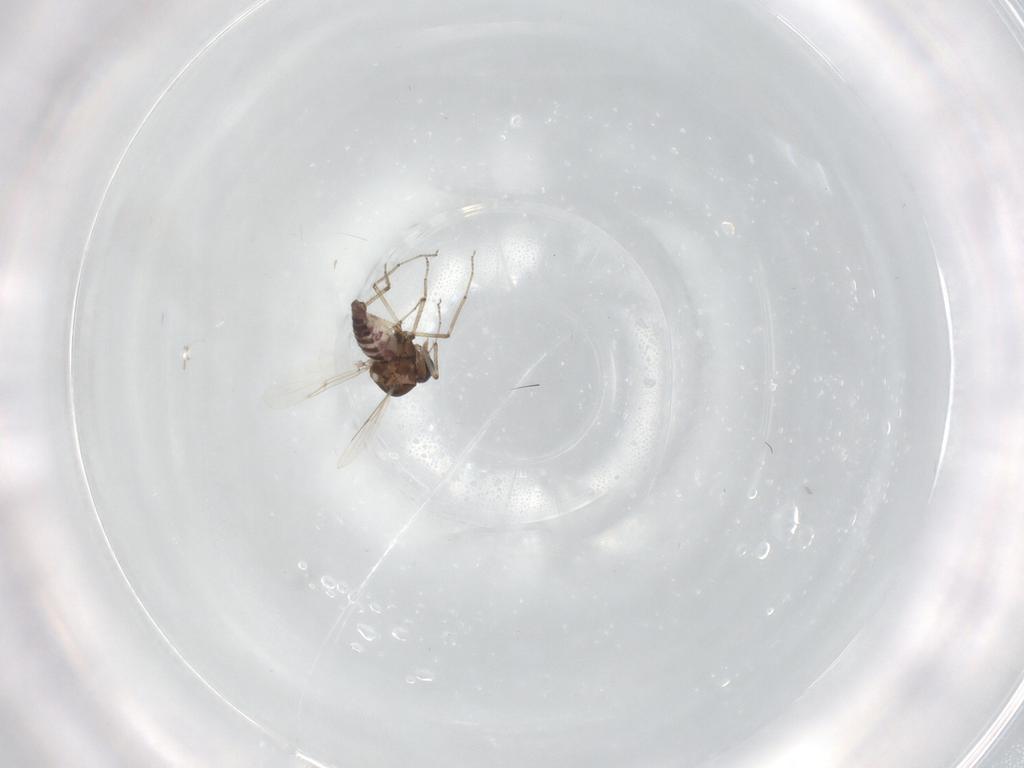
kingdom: Animalia
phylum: Arthropoda
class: Insecta
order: Diptera
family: Ceratopogonidae
